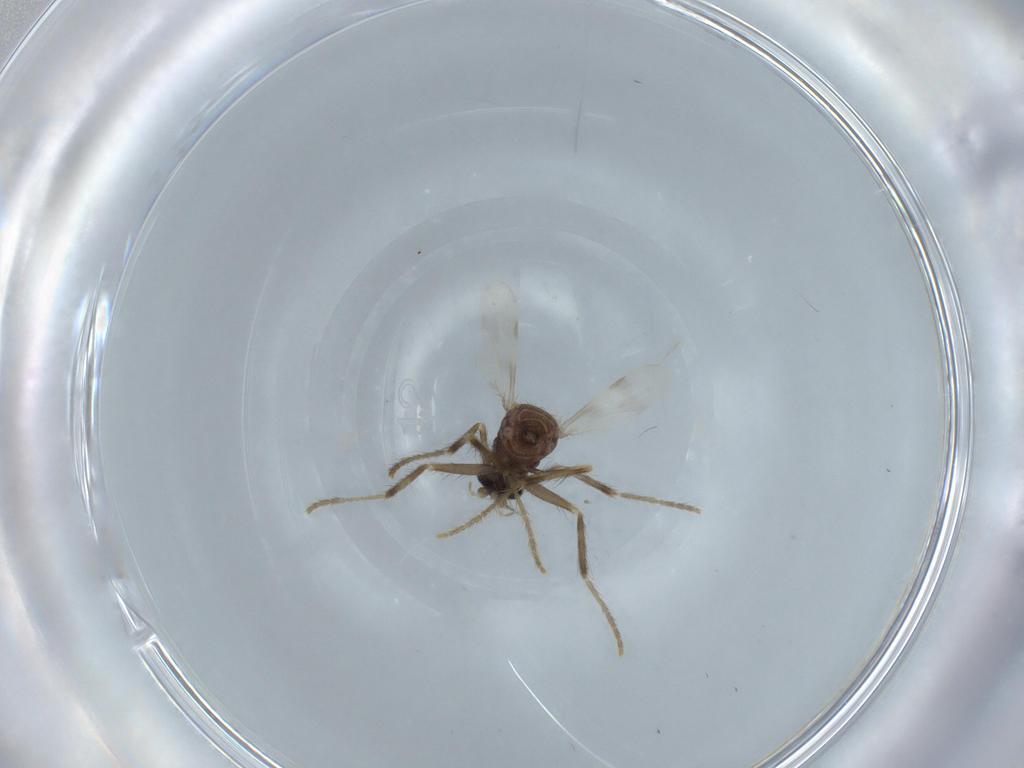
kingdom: Animalia
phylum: Arthropoda
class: Insecta
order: Diptera
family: Corethrellidae
